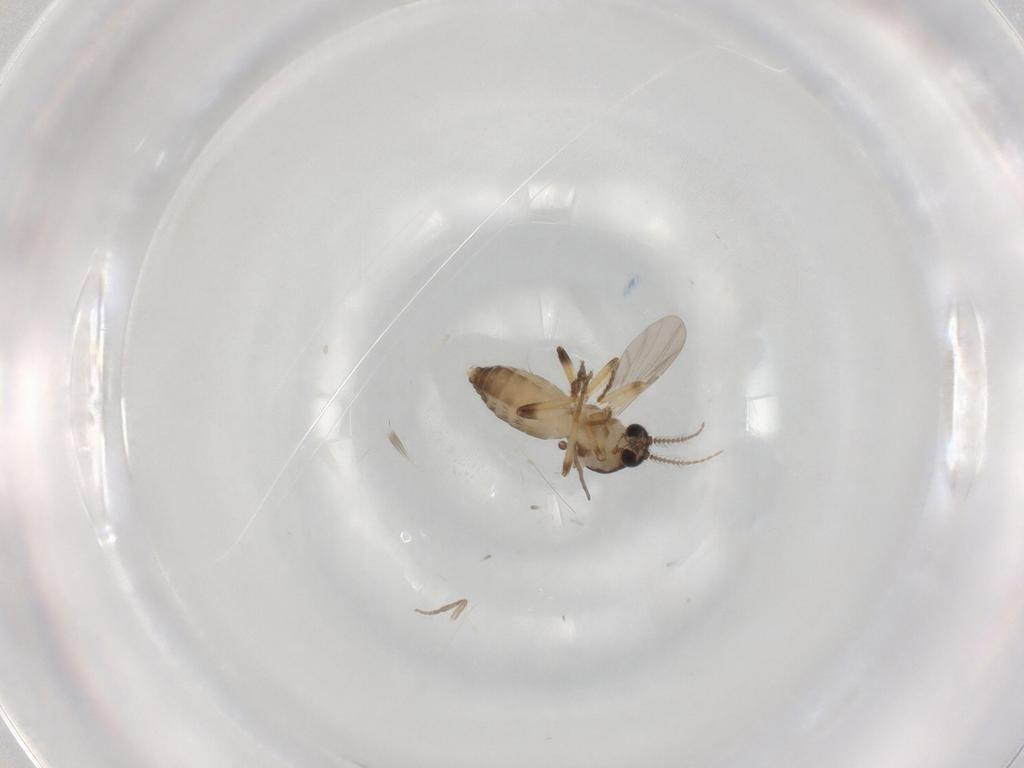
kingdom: Animalia
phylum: Arthropoda
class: Insecta
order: Diptera
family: Ceratopogonidae
